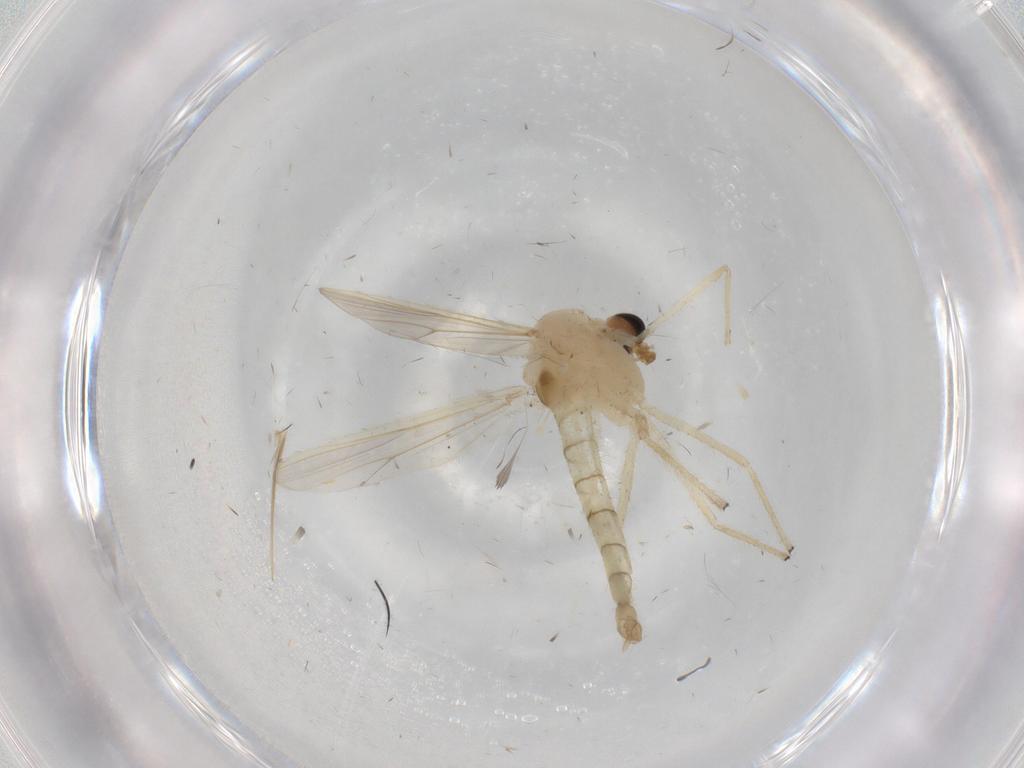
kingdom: Animalia
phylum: Arthropoda
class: Insecta
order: Diptera
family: Chironomidae
